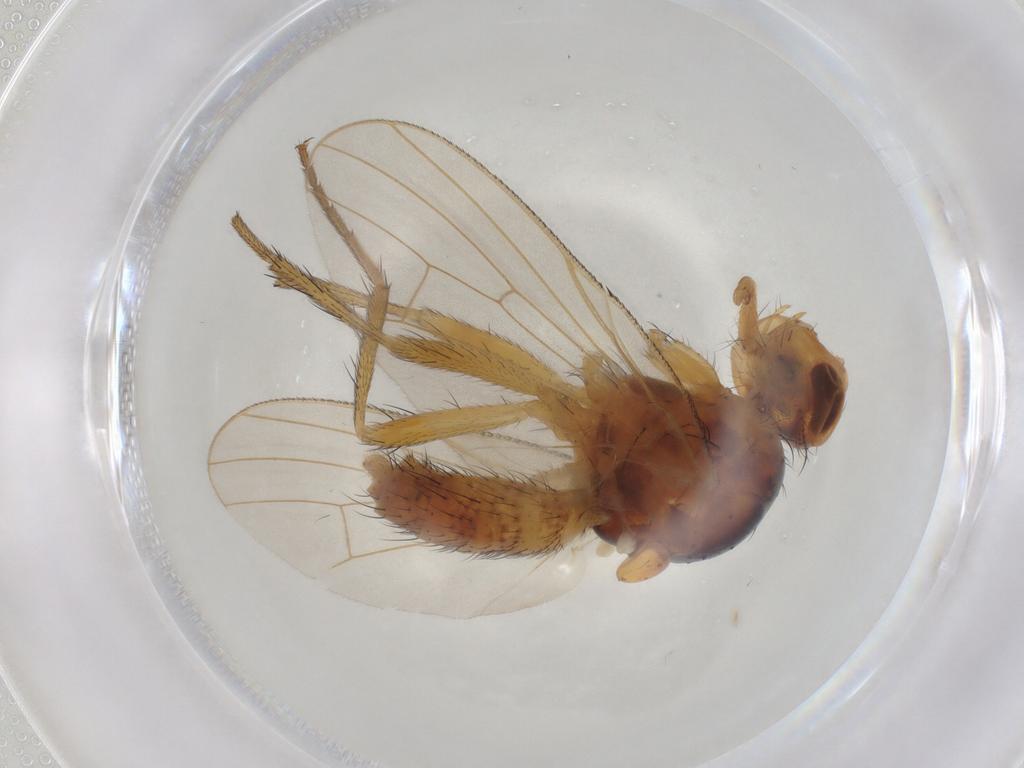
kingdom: Animalia
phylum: Arthropoda
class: Insecta
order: Diptera
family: Anthomyiidae
